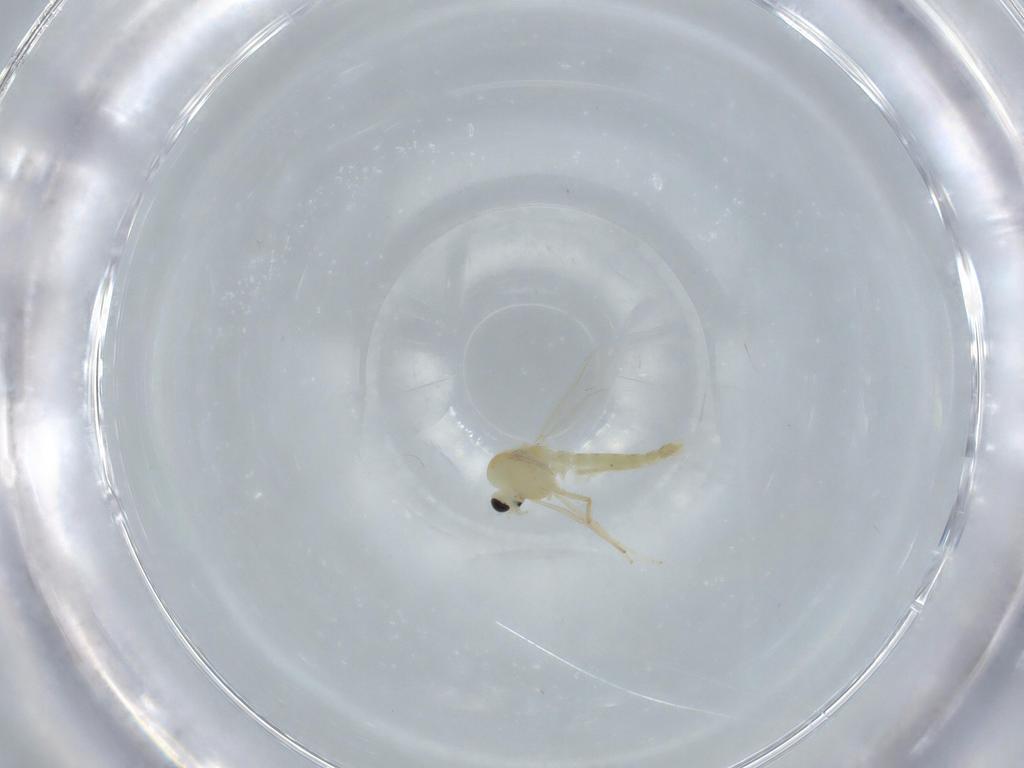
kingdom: Animalia
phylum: Arthropoda
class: Insecta
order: Diptera
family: Chironomidae
